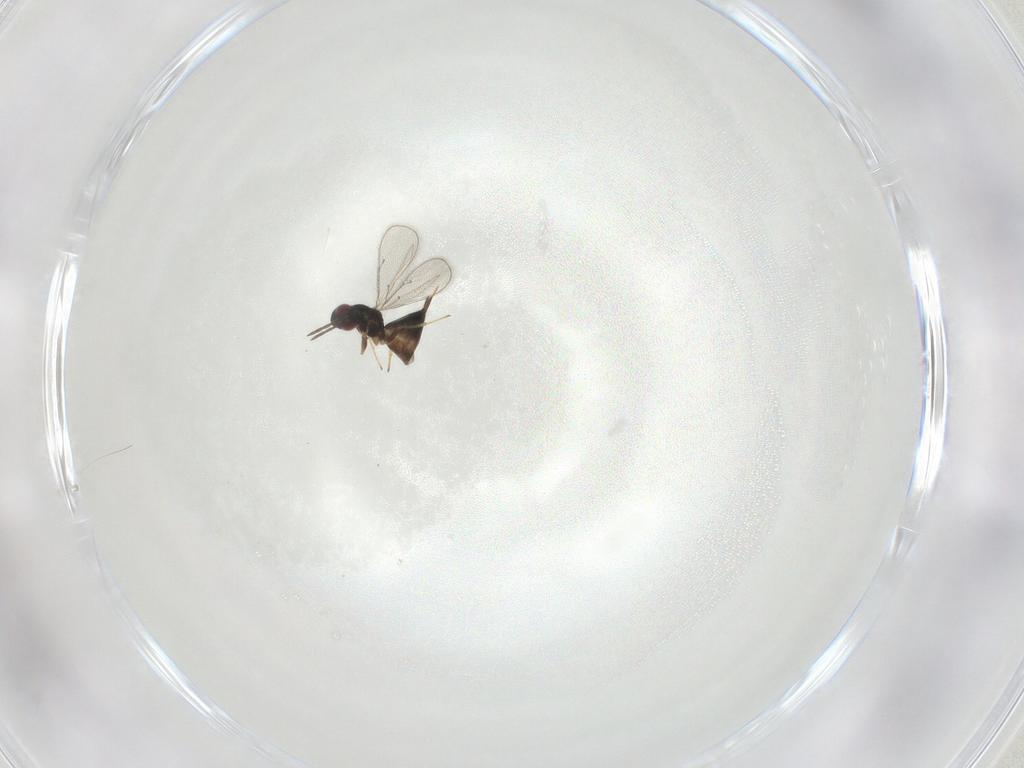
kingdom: Animalia
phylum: Arthropoda
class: Insecta
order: Hymenoptera
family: Eulophidae
